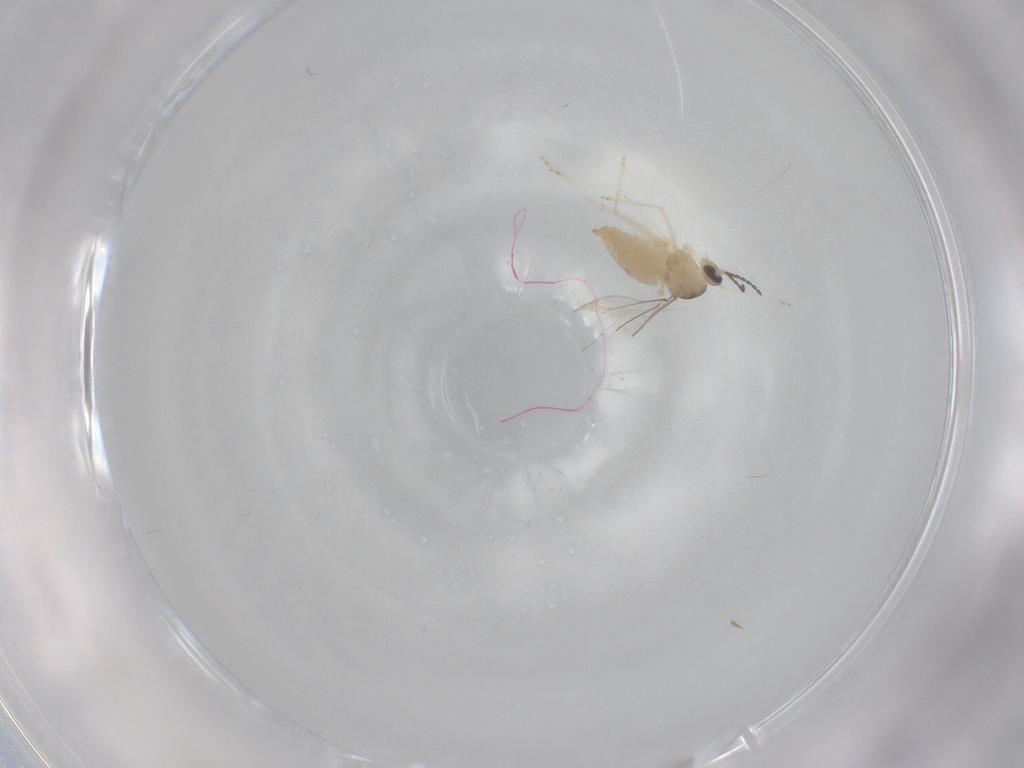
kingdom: Animalia
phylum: Arthropoda
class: Insecta
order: Diptera
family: Cecidomyiidae
